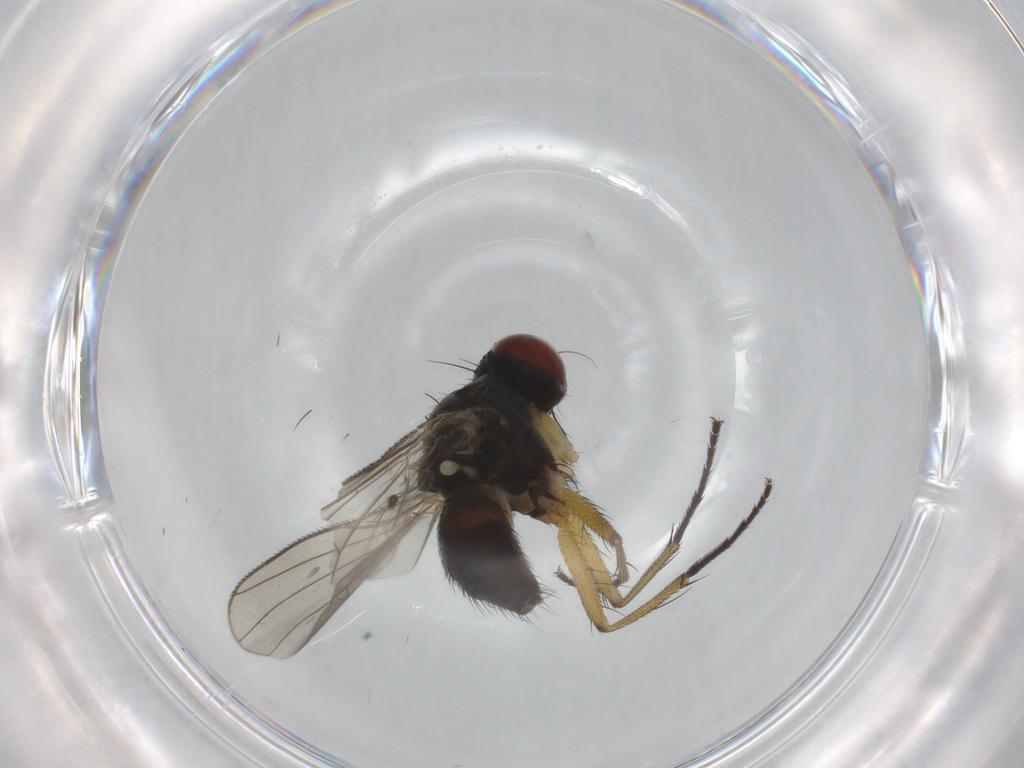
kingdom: Animalia
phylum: Arthropoda
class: Insecta
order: Diptera
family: Muscidae
